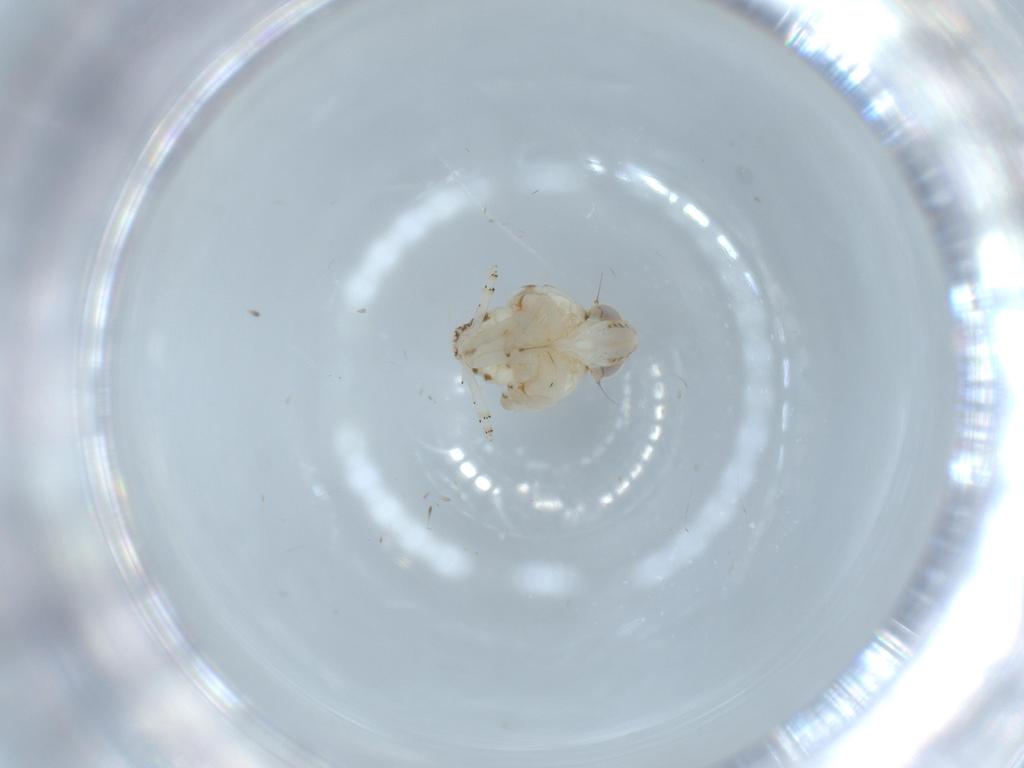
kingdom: Animalia
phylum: Arthropoda
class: Insecta
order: Hemiptera
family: Nogodinidae
